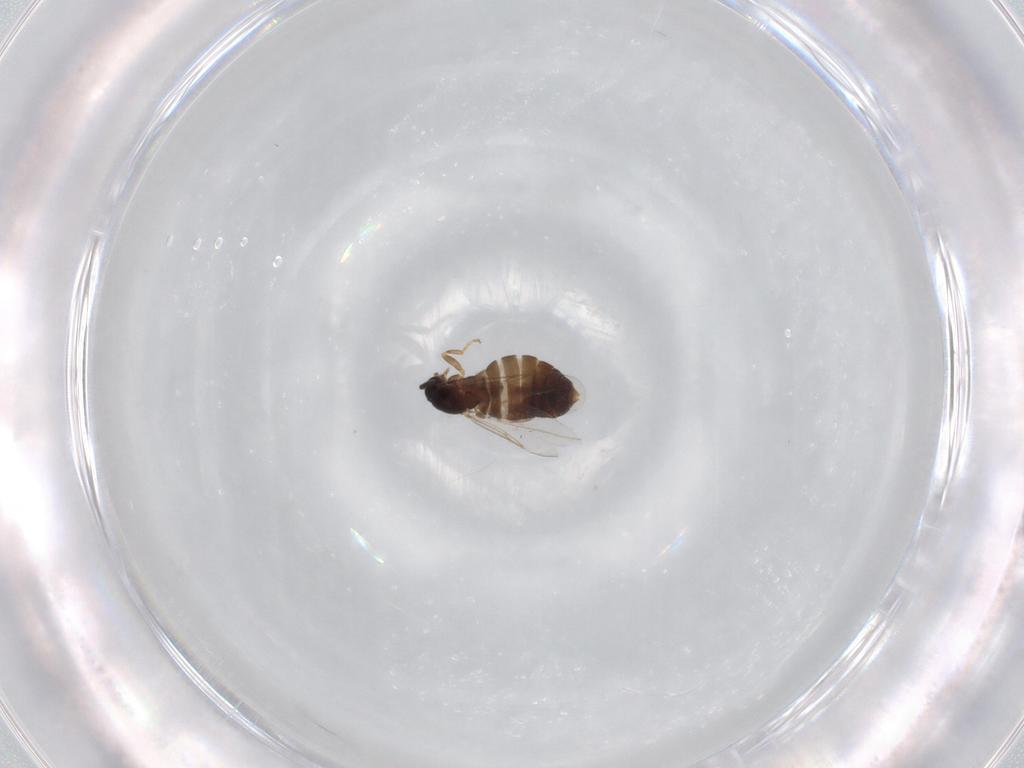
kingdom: Animalia
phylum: Arthropoda
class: Insecta
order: Diptera
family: Scatopsidae
